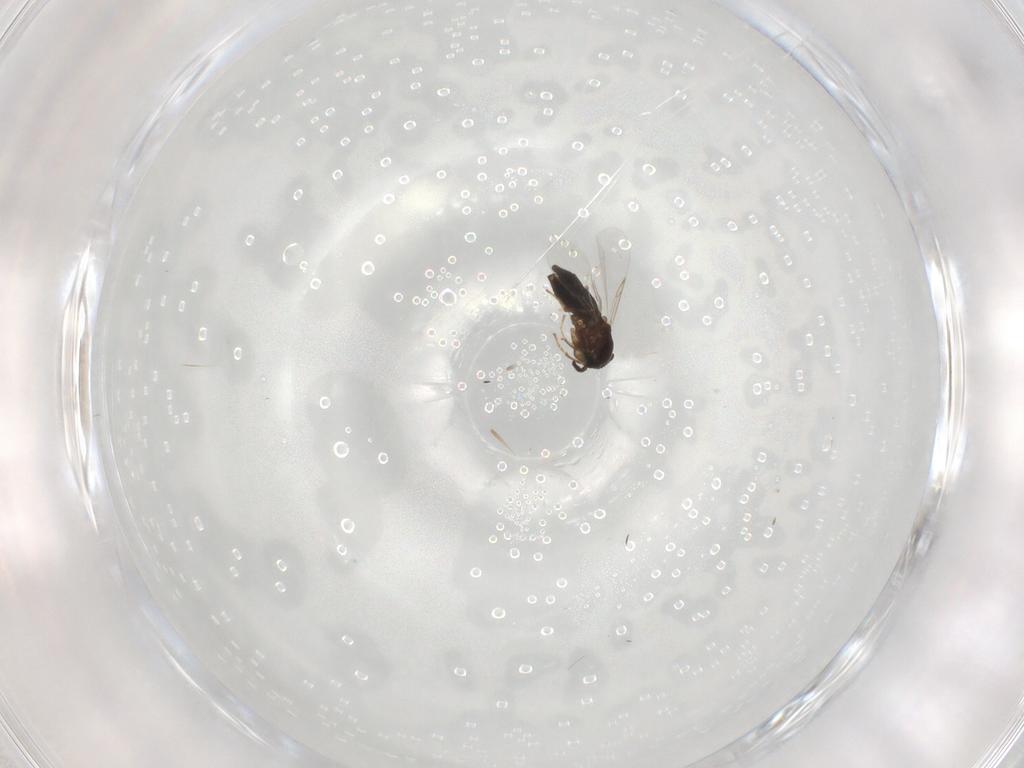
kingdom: Animalia
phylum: Arthropoda
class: Insecta
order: Diptera
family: Scatopsidae
